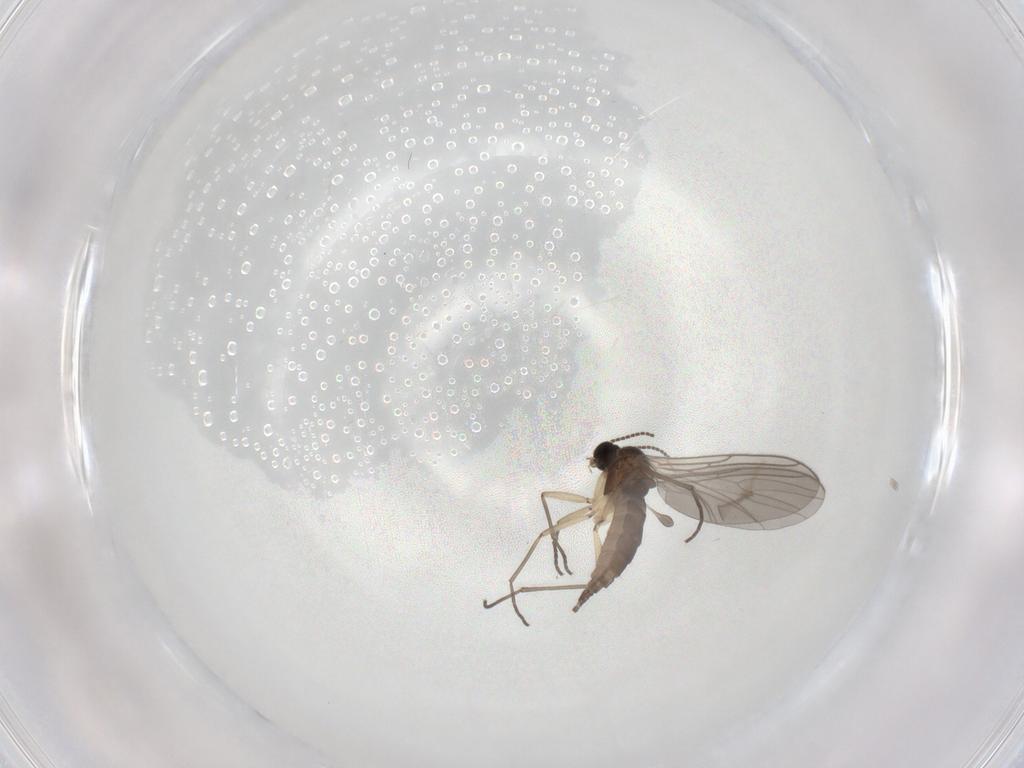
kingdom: Animalia
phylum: Arthropoda
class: Insecta
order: Diptera
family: Sciaridae
